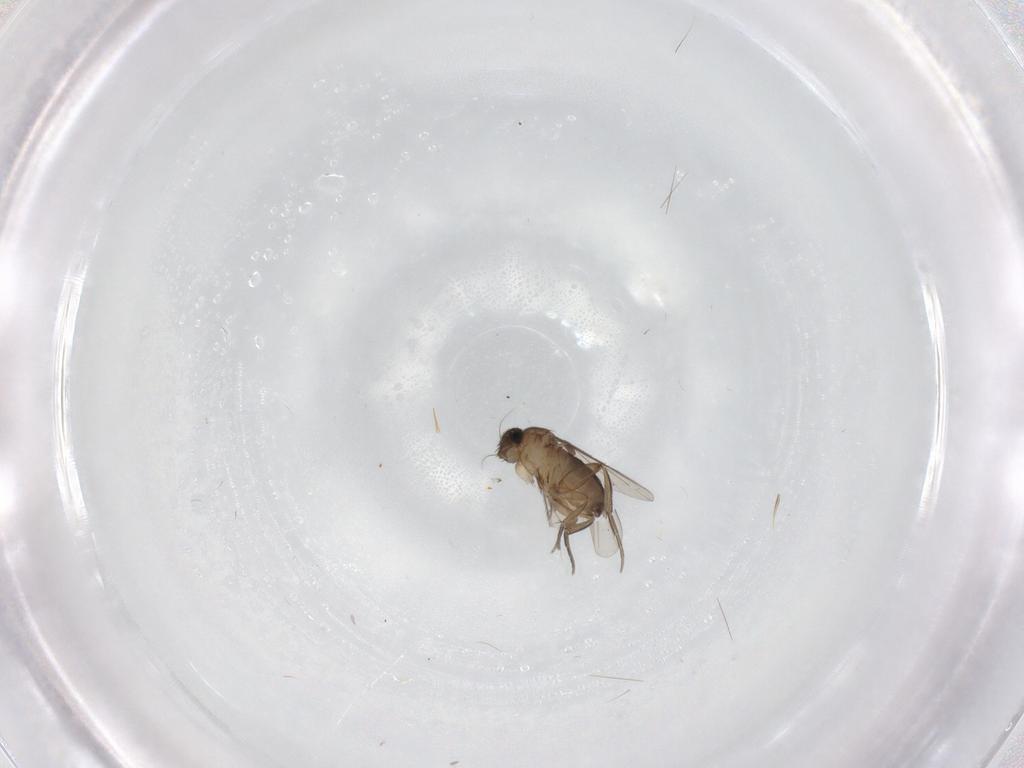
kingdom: Animalia
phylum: Arthropoda
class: Insecta
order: Diptera
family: Phoridae
